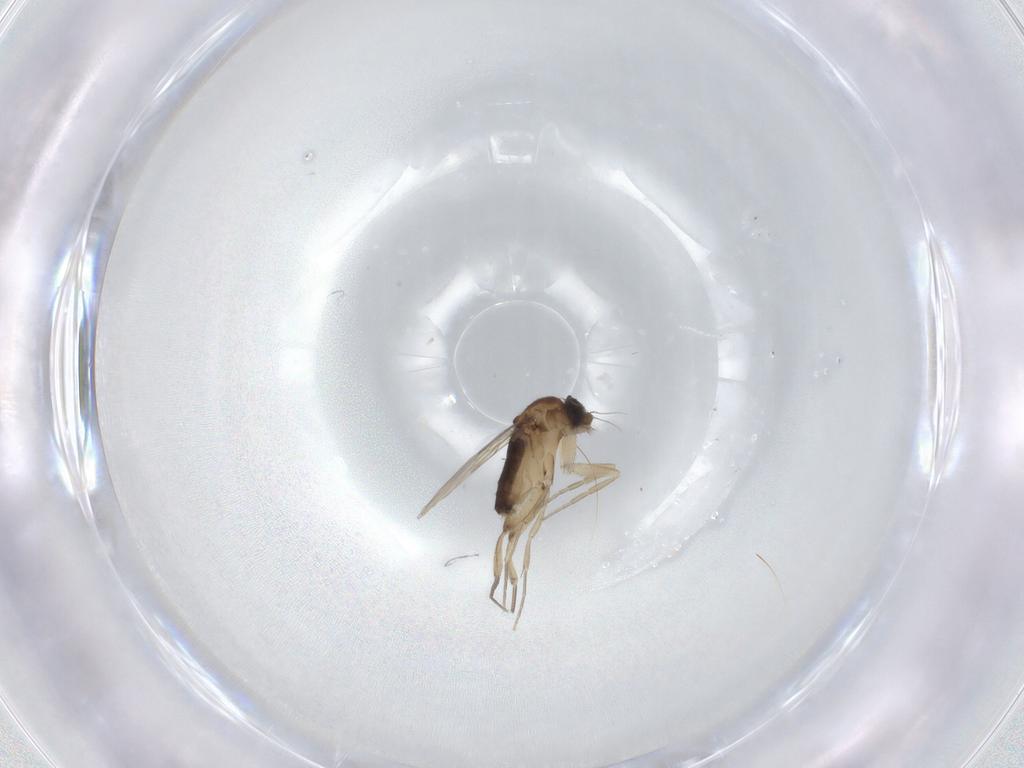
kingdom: Animalia
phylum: Arthropoda
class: Insecta
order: Diptera
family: Phoridae
